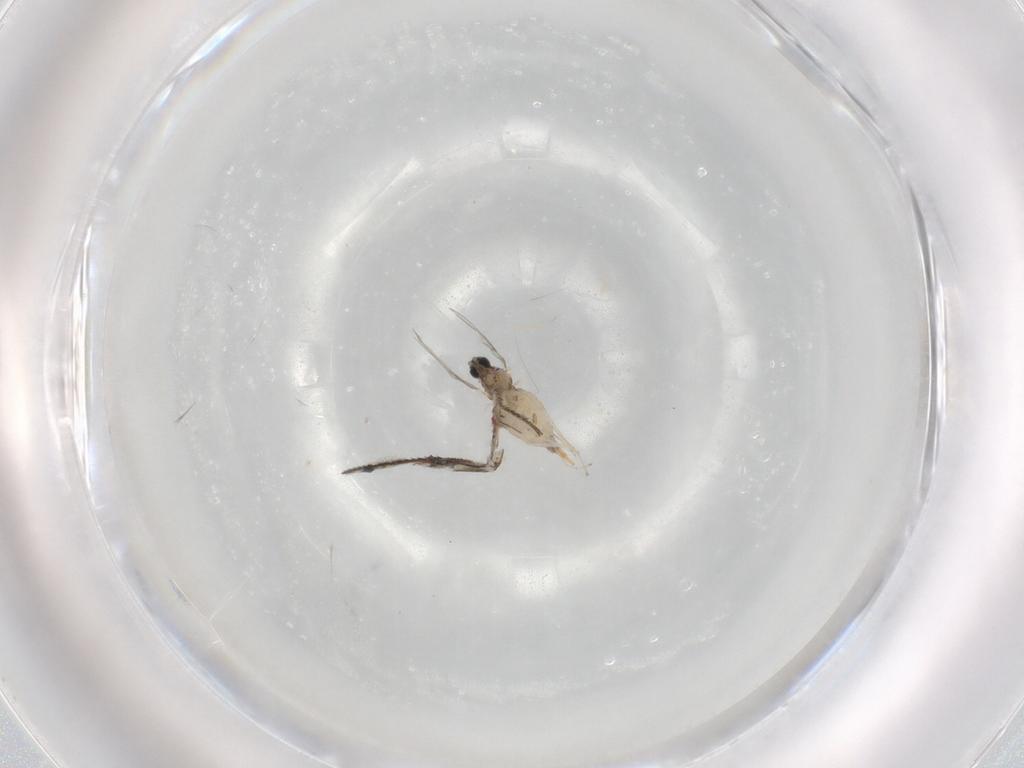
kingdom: Animalia
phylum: Arthropoda
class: Insecta
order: Diptera
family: Cecidomyiidae
